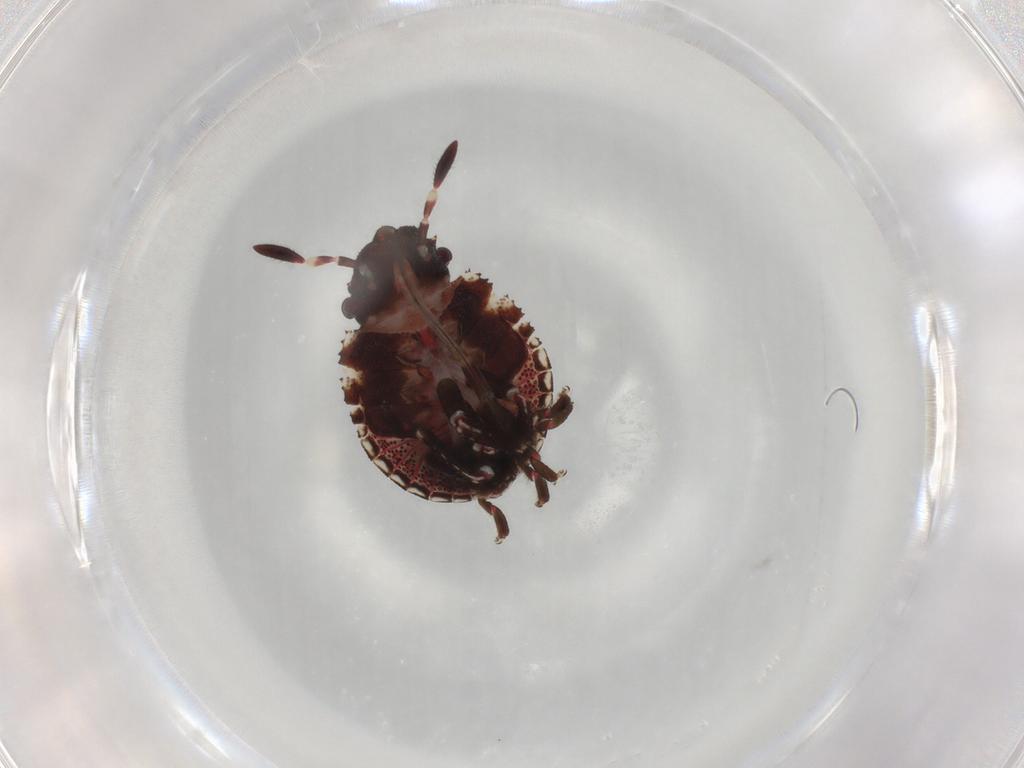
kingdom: Animalia
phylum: Arthropoda
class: Insecta
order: Hemiptera
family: Scutelleridae
